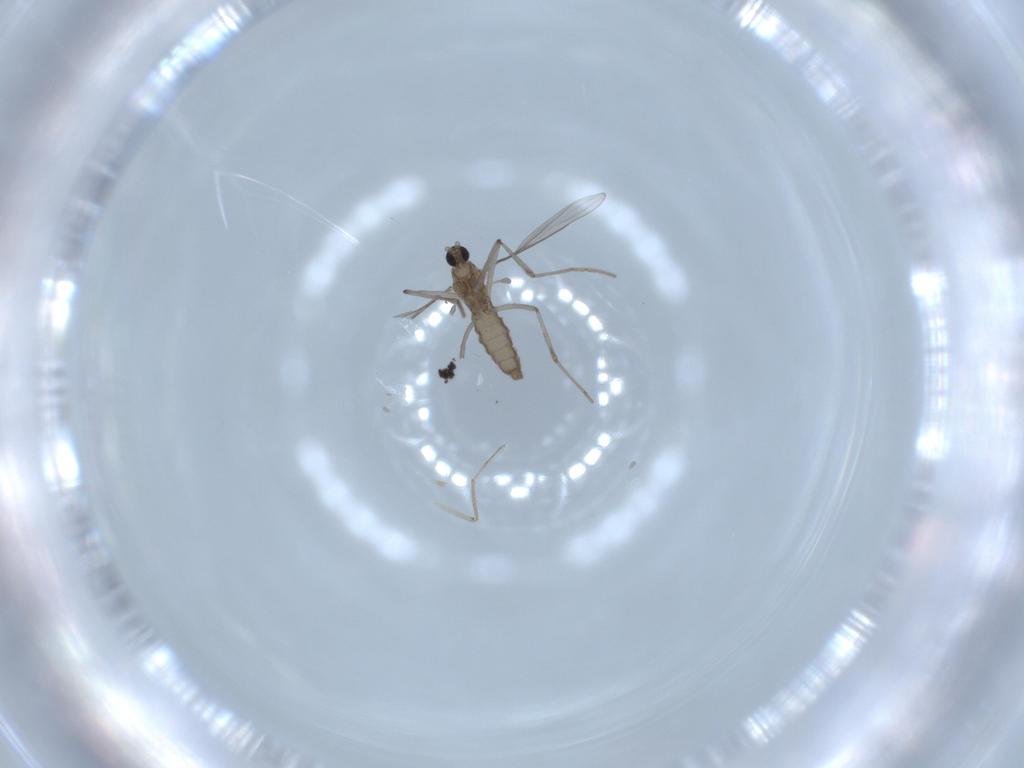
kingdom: Animalia
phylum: Arthropoda
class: Insecta
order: Diptera
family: Cecidomyiidae
